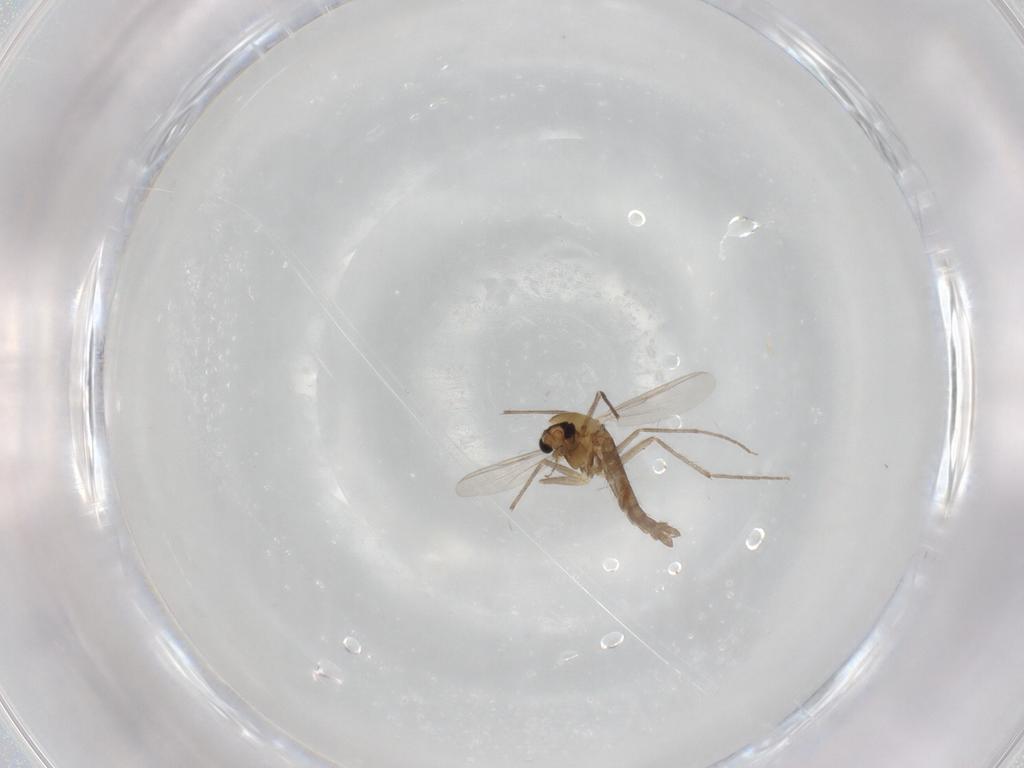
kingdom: Animalia
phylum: Arthropoda
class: Insecta
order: Diptera
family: Chironomidae
